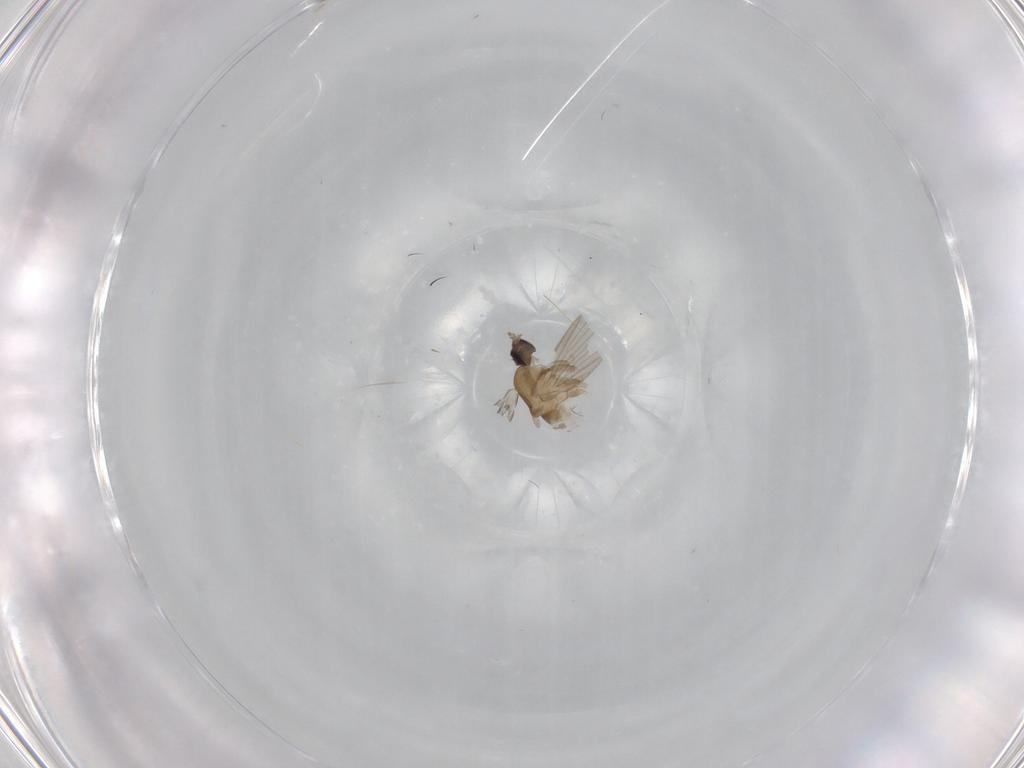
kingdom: Animalia
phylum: Arthropoda
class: Insecta
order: Diptera
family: Psychodidae
